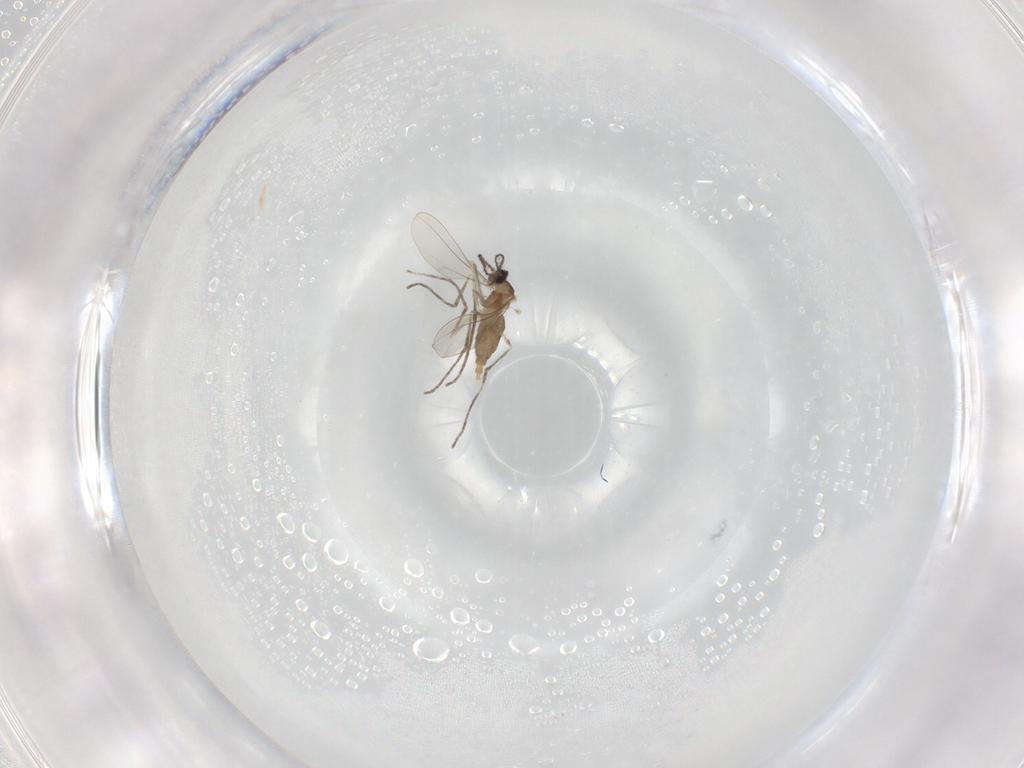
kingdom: Animalia
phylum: Arthropoda
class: Insecta
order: Diptera
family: Cecidomyiidae
